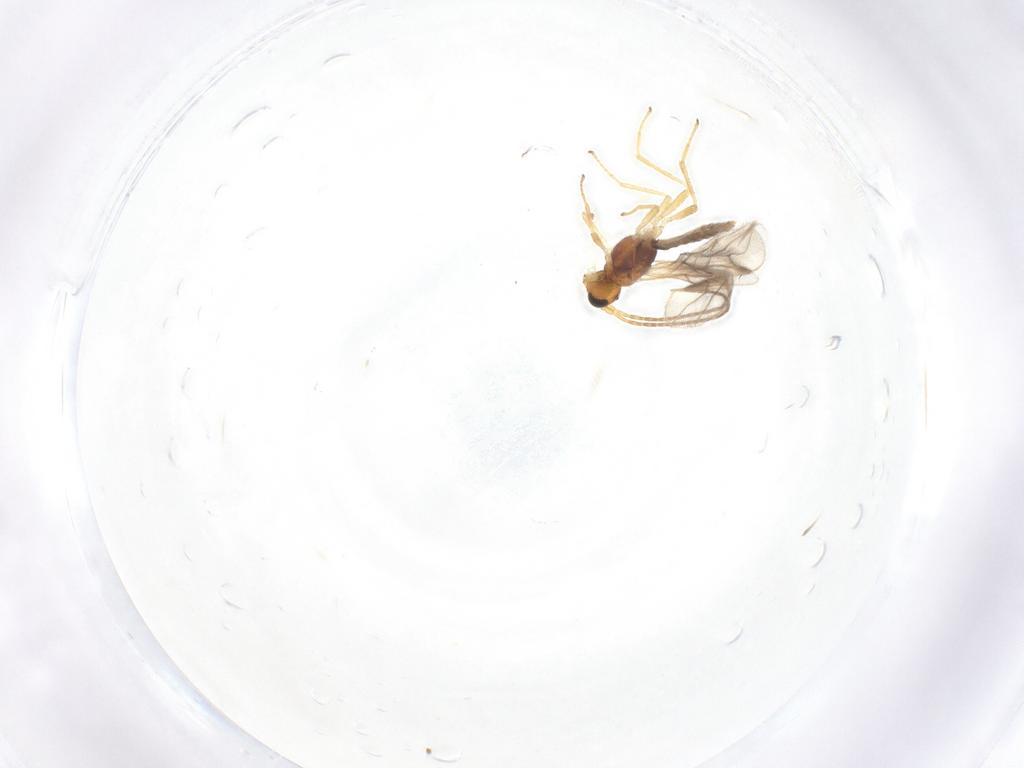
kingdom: Animalia
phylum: Arthropoda
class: Insecta
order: Hymenoptera
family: Braconidae
